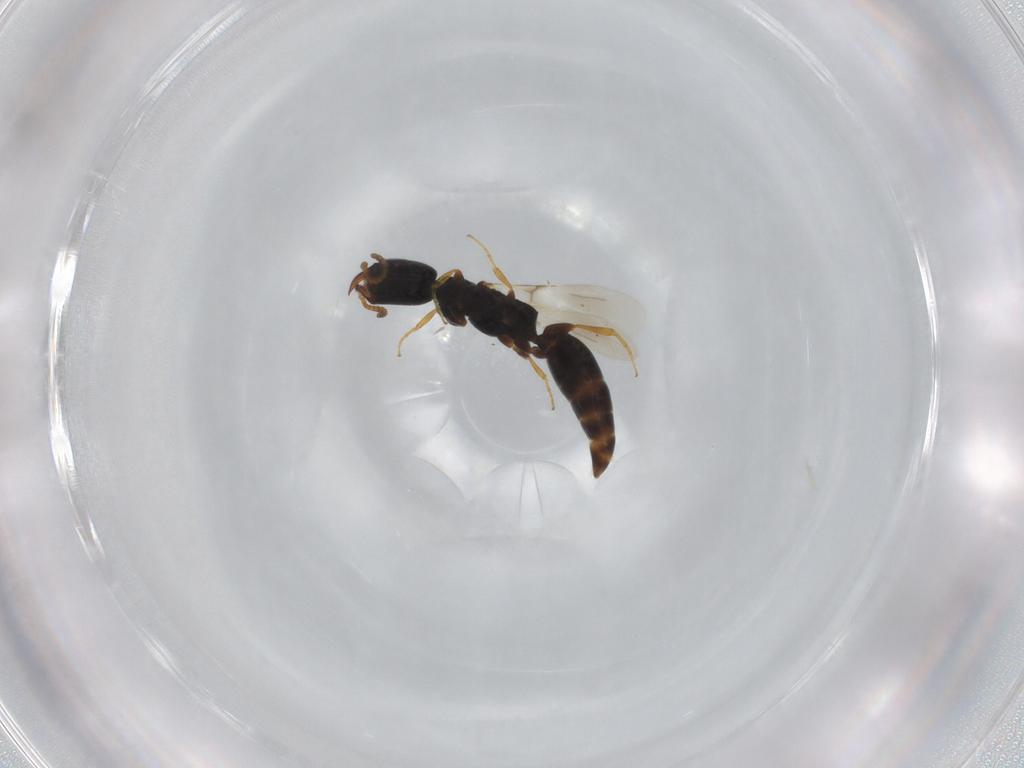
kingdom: Animalia
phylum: Arthropoda
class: Insecta
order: Hymenoptera
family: Bethylidae
